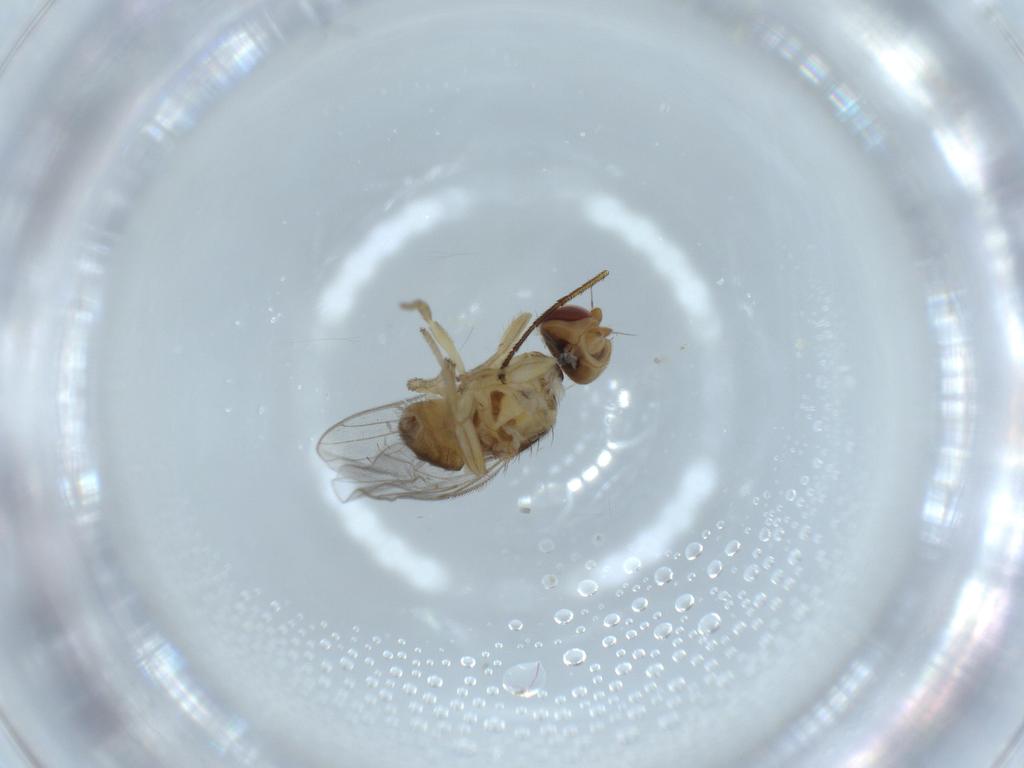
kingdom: Animalia
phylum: Arthropoda
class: Insecta
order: Diptera
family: Chloropidae
